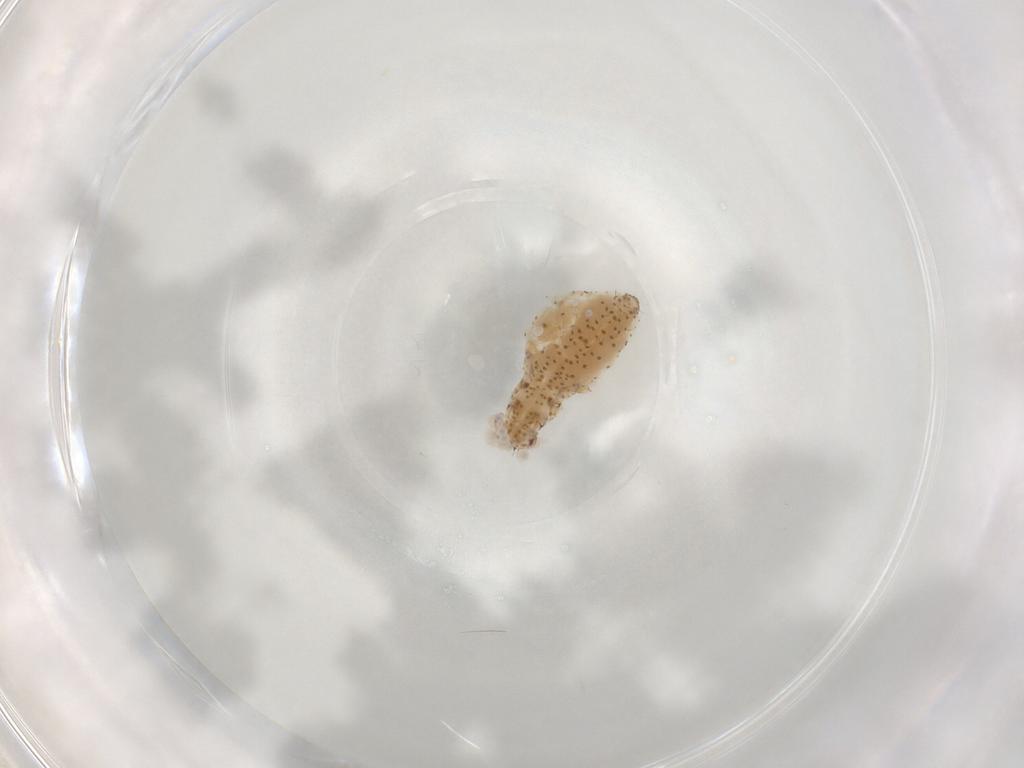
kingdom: Animalia
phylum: Arthropoda
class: Insecta
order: Hemiptera
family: Aphididae
